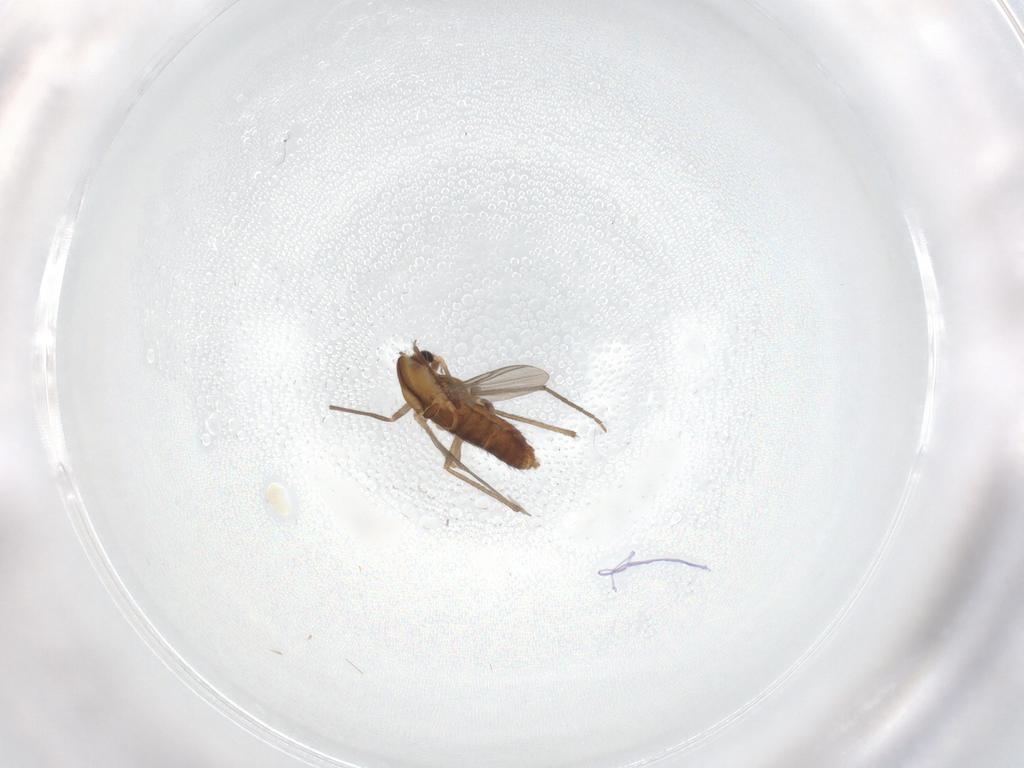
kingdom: Animalia
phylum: Arthropoda
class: Insecta
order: Diptera
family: Chironomidae
